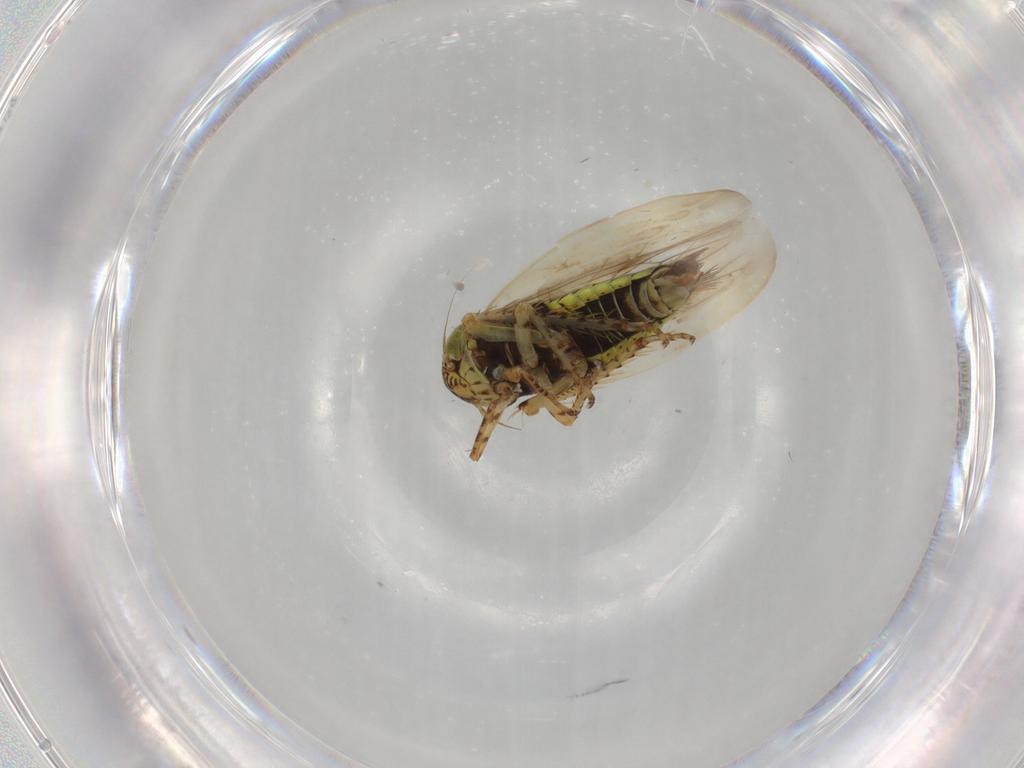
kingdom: Animalia
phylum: Arthropoda
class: Insecta
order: Hemiptera
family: Cicadellidae
